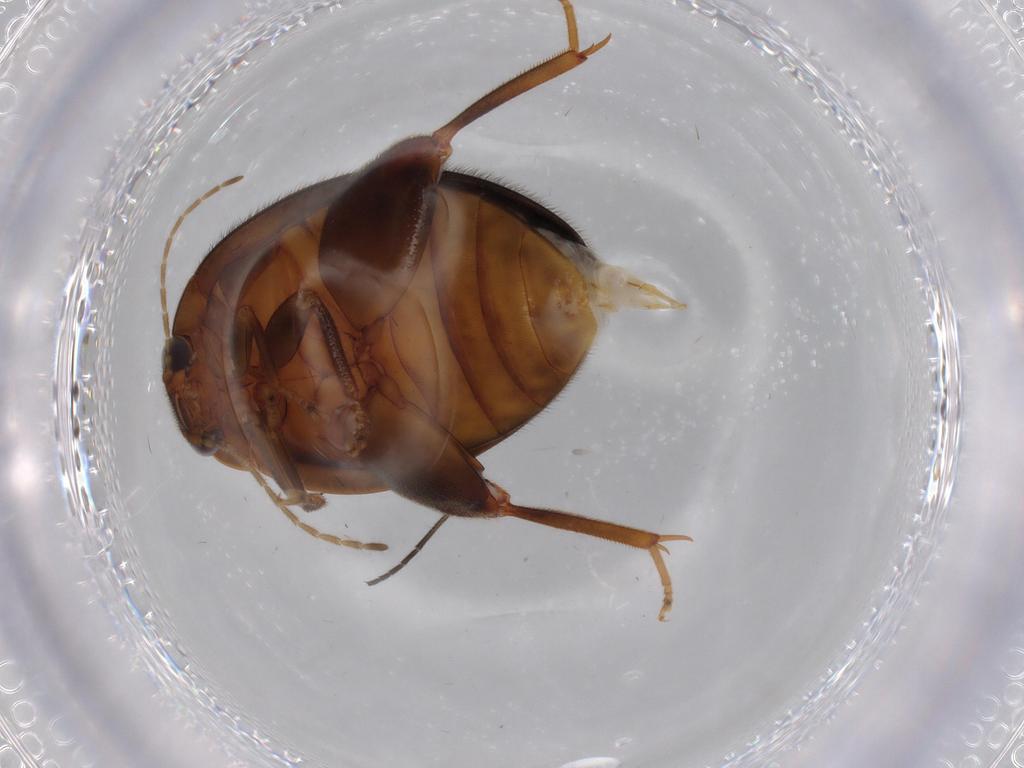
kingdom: Animalia
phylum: Arthropoda
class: Insecta
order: Coleoptera
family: Scirtidae
